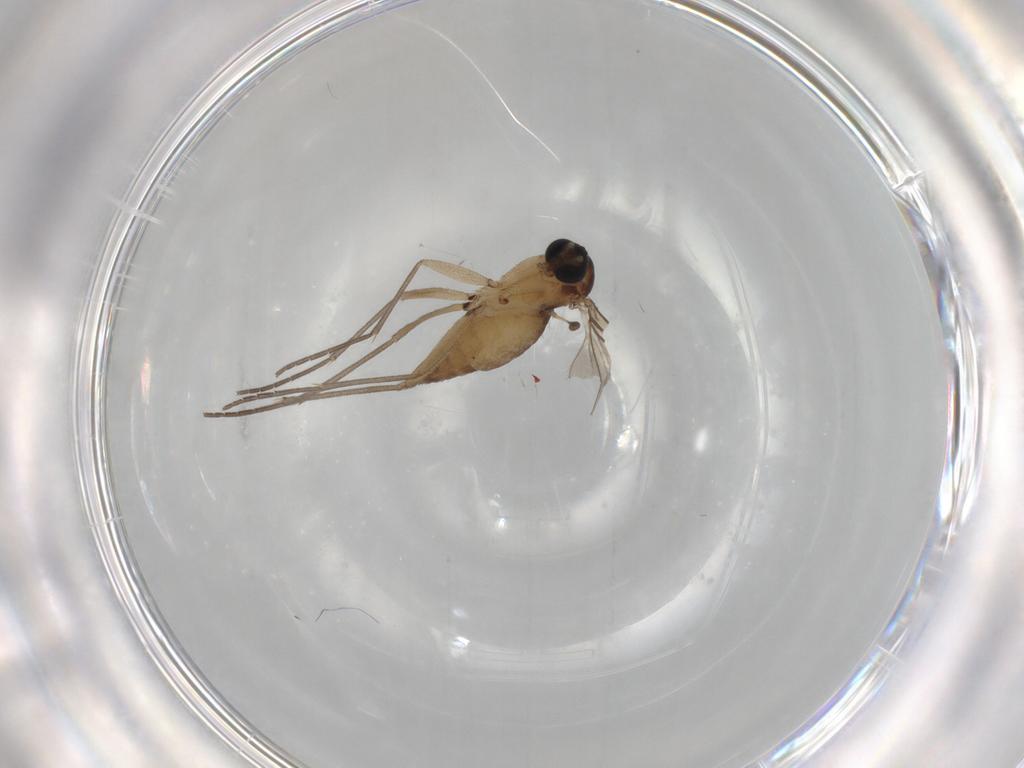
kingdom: Animalia
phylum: Arthropoda
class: Insecta
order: Diptera
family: Sciaridae
